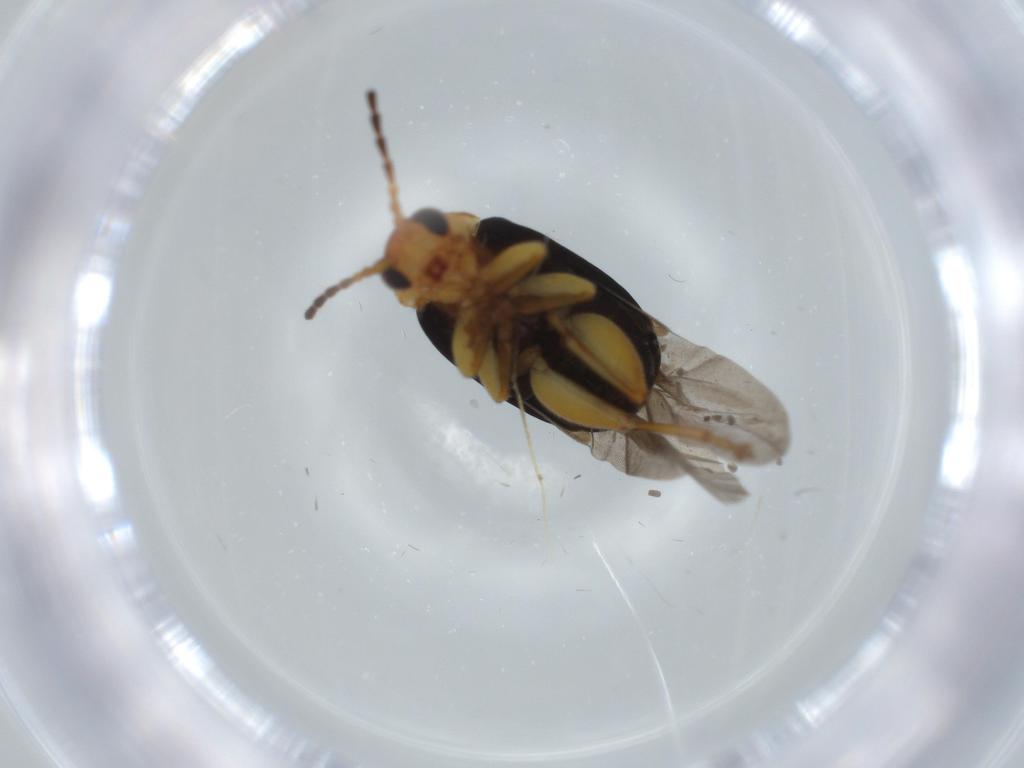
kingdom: Animalia
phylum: Arthropoda
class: Insecta
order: Coleoptera
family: Chrysomelidae
